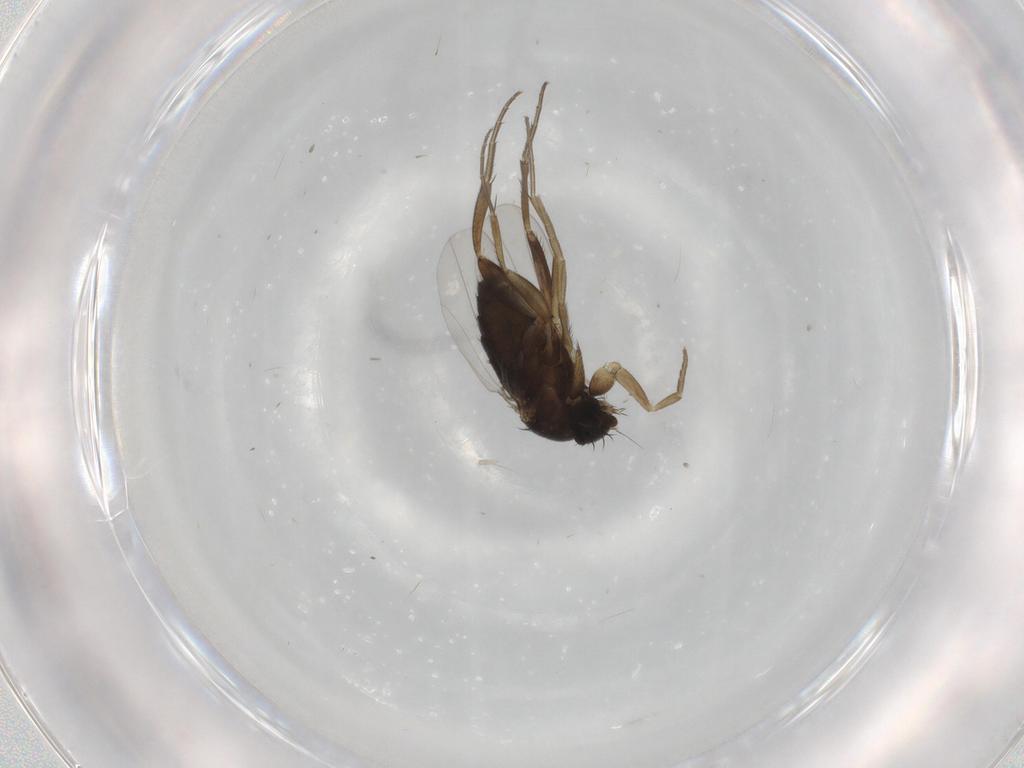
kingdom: Animalia
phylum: Arthropoda
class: Insecta
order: Diptera
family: Phoridae
